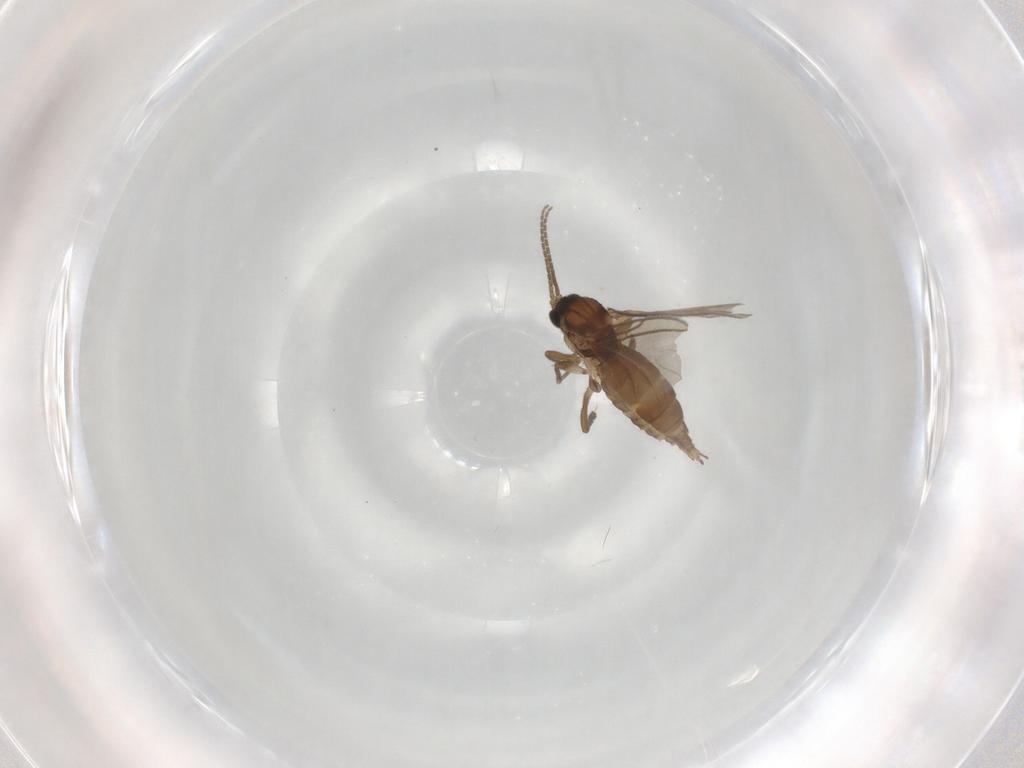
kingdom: Animalia
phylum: Arthropoda
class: Insecta
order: Diptera
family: Sciaridae
